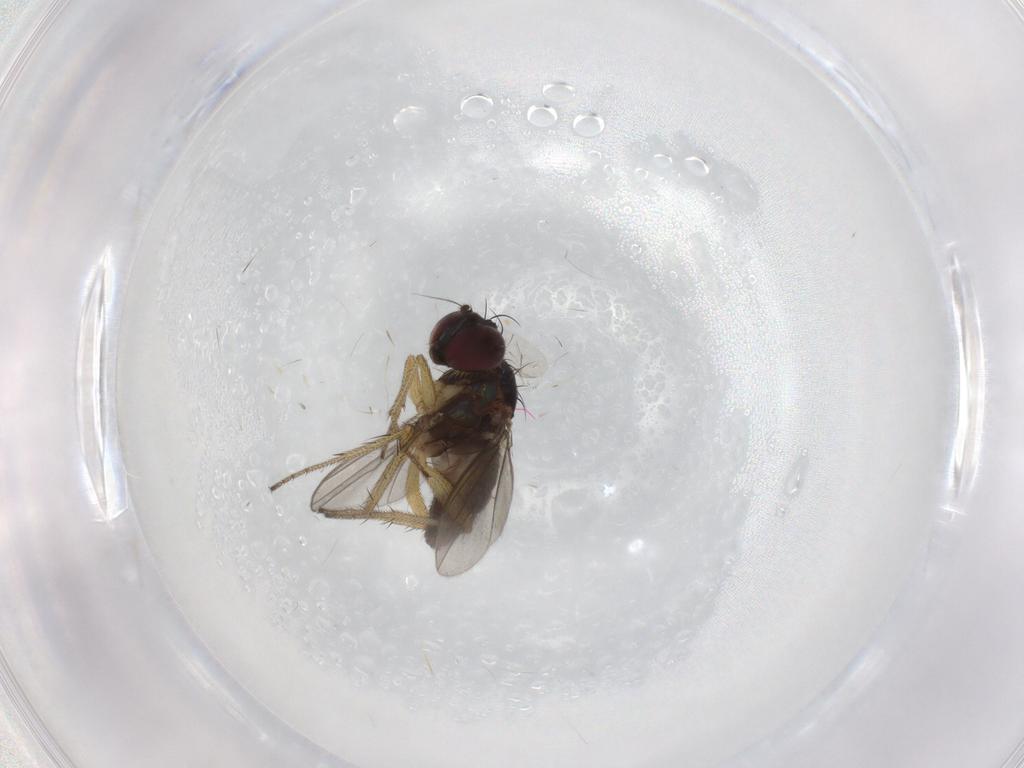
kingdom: Animalia
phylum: Arthropoda
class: Insecta
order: Diptera
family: Dolichopodidae
